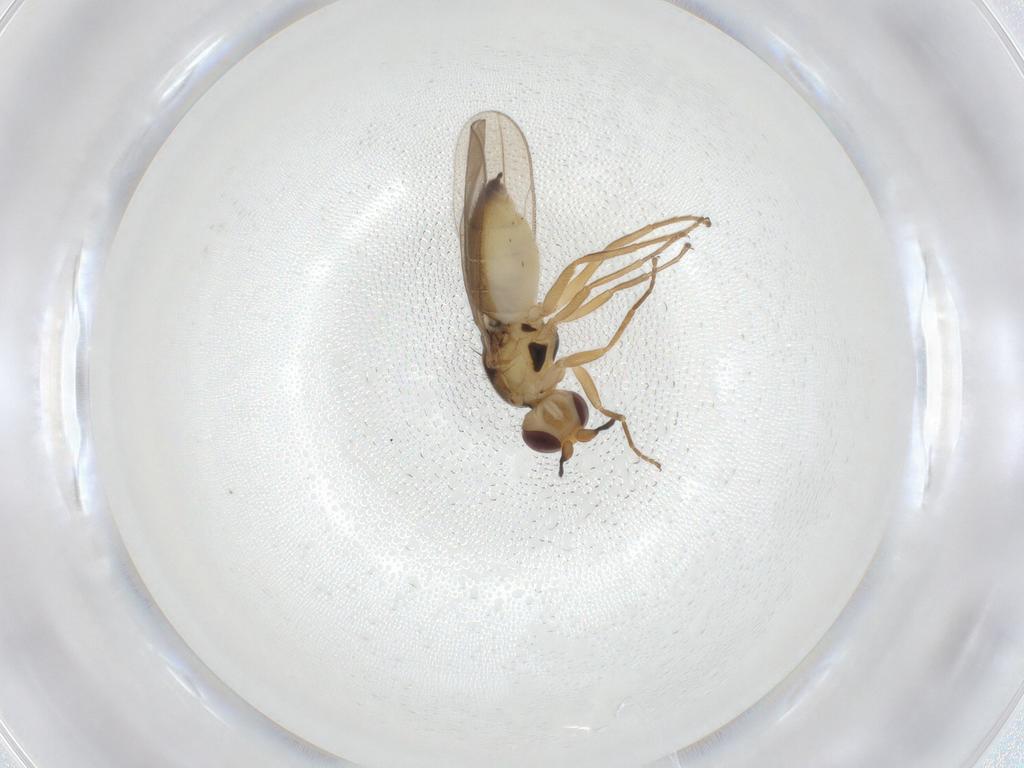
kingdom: Animalia
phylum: Arthropoda
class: Insecta
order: Diptera
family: Chloropidae
